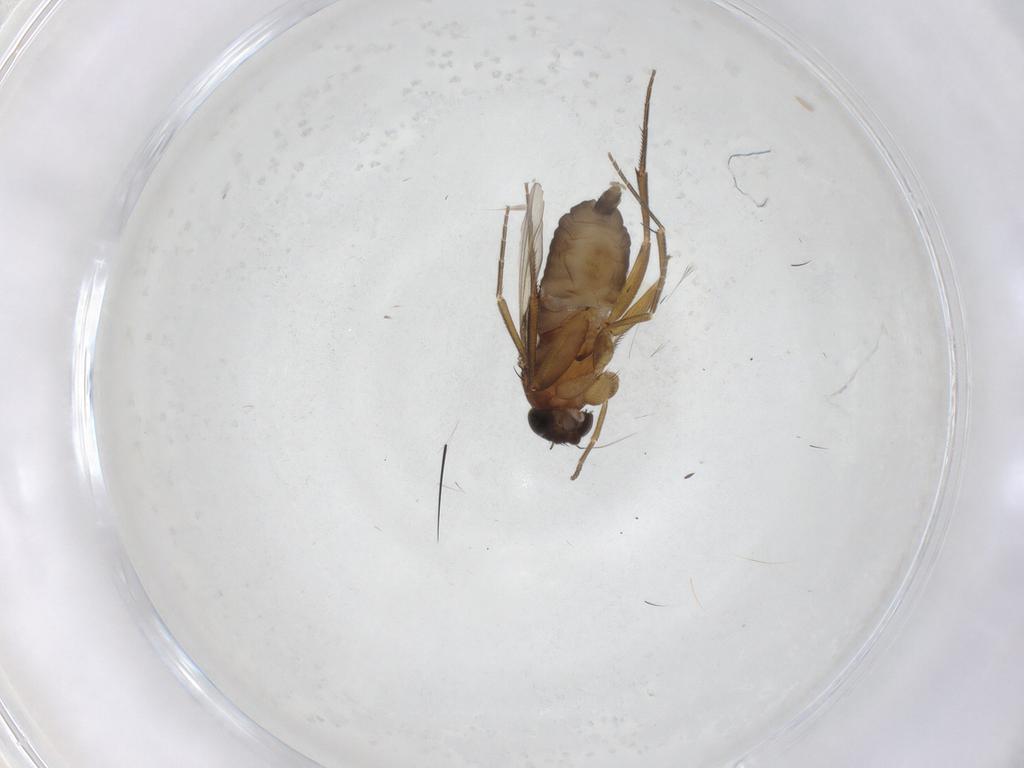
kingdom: Animalia
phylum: Arthropoda
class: Insecta
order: Diptera
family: Phoridae
